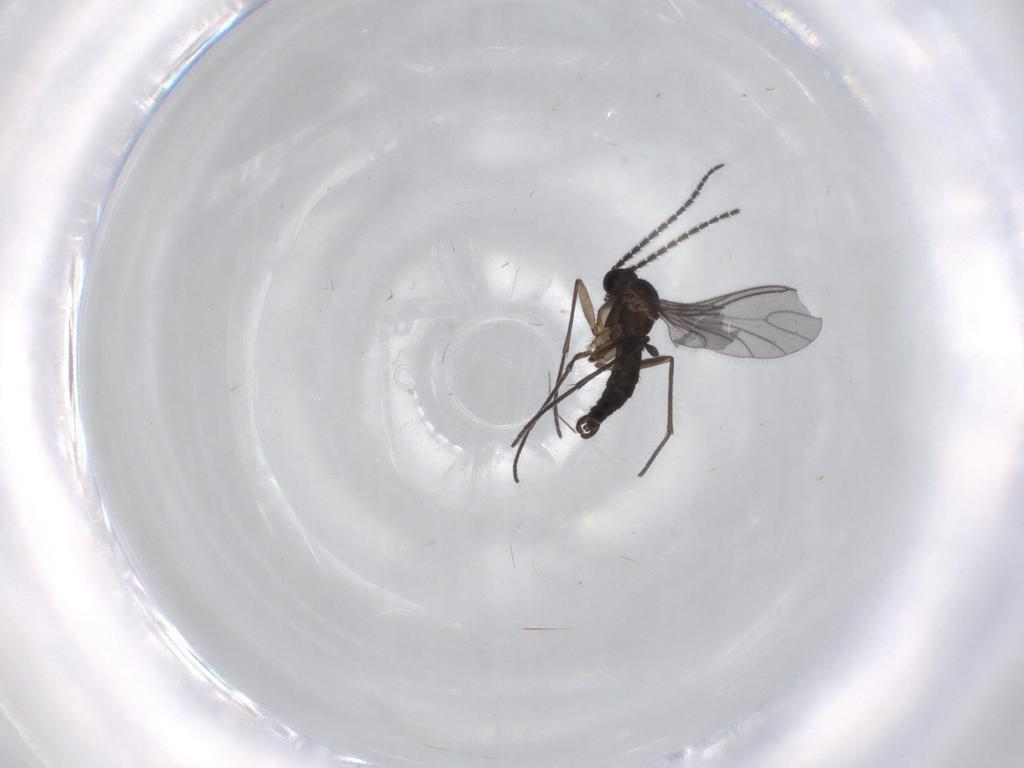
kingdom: Animalia
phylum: Arthropoda
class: Insecta
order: Diptera
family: Sciaridae
